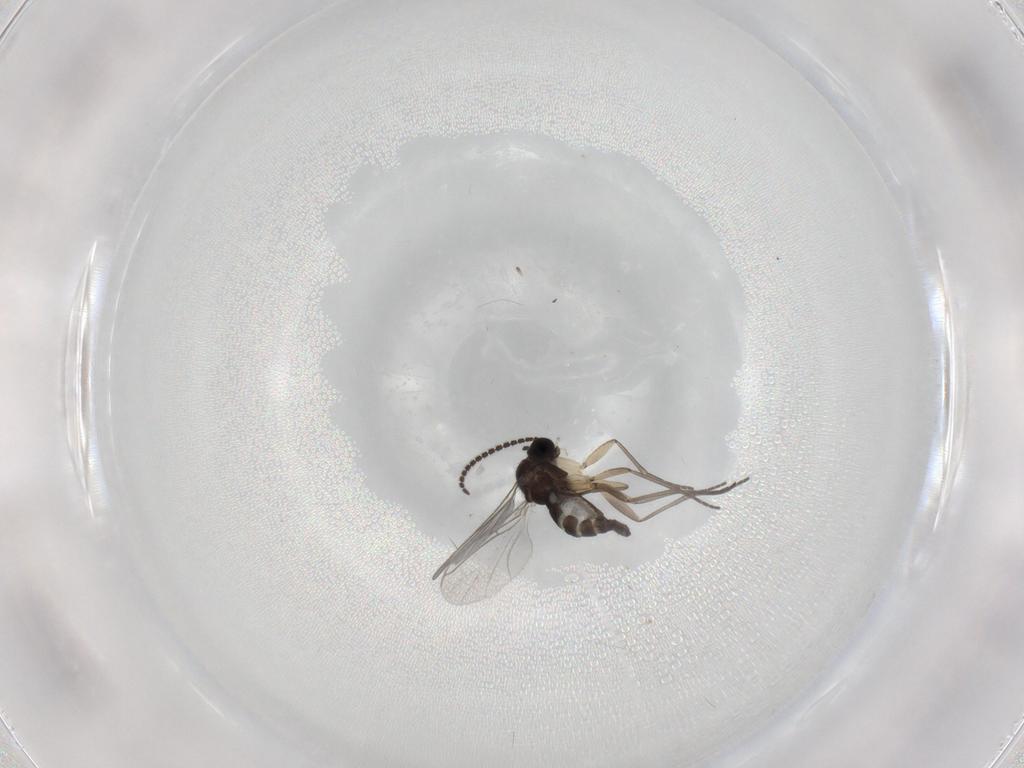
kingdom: Animalia
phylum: Arthropoda
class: Insecta
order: Diptera
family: Sciaridae
